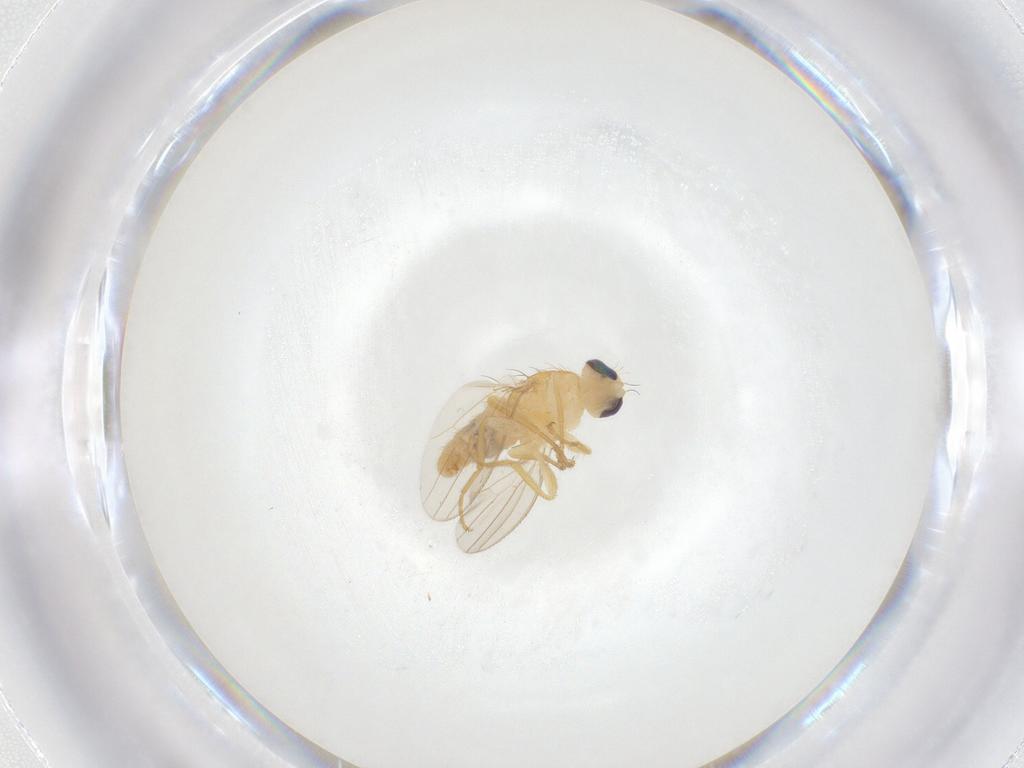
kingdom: Animalia
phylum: Arthropoda
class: Insecta
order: Diptera
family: Chyromyidae
